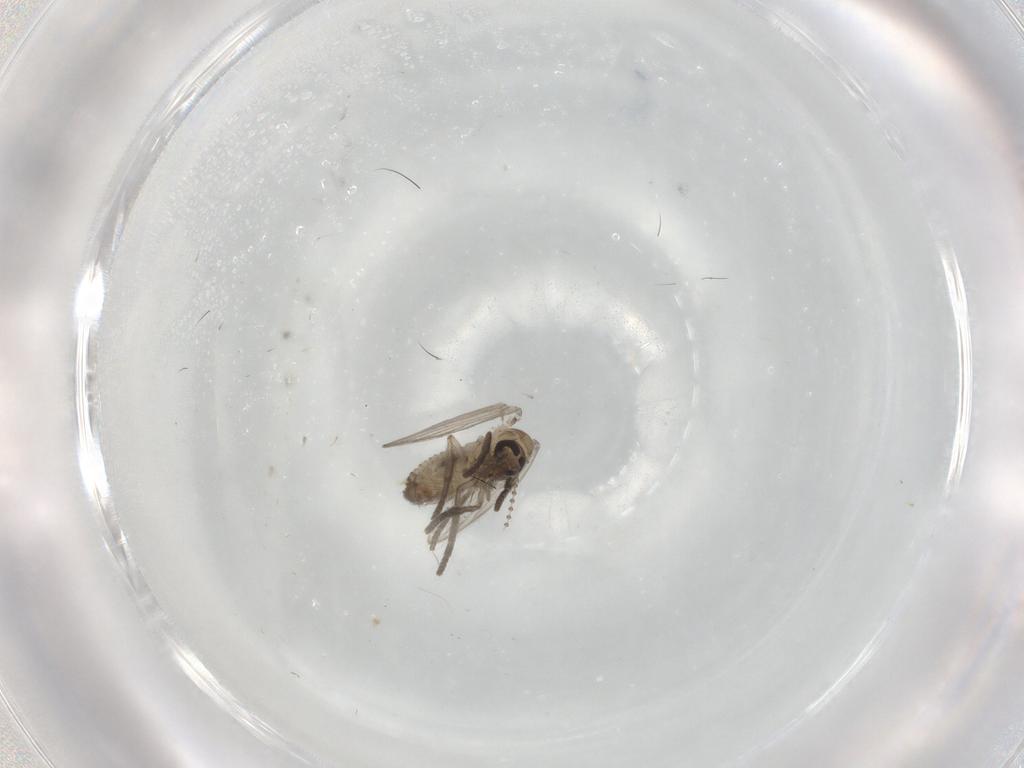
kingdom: Animalia
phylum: Arthropoda
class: Insecta
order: Diptera
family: Psychodidae
